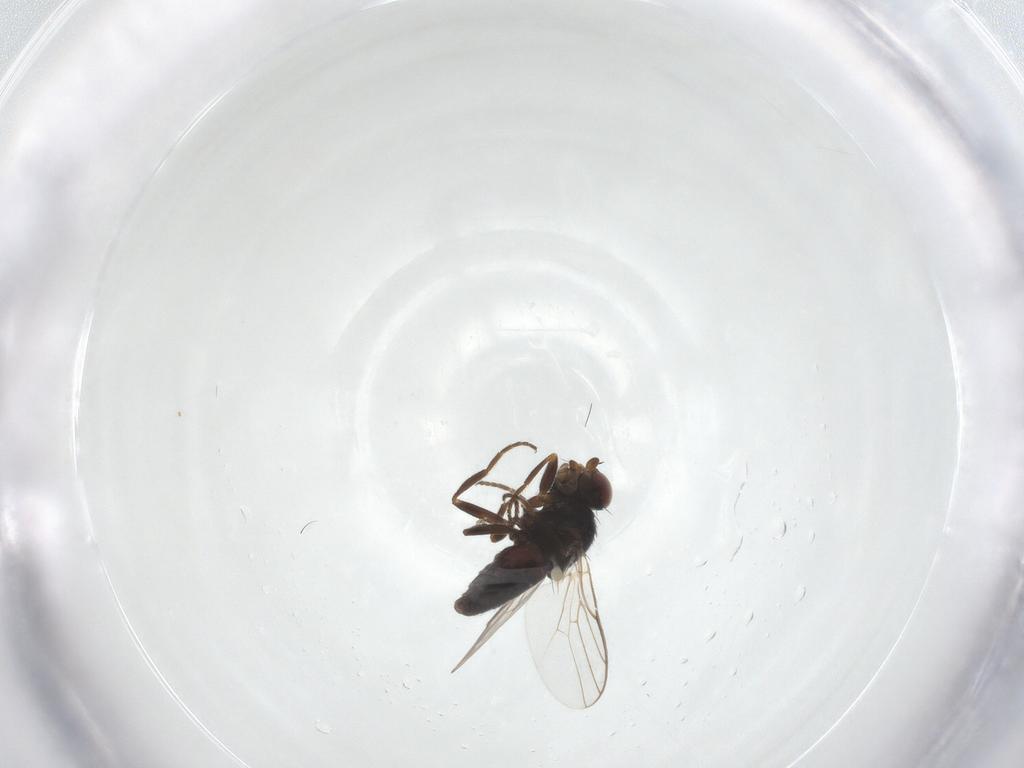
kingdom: Animalia
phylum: Arthropoda
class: Insecta
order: Diptera
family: Chloropidae
